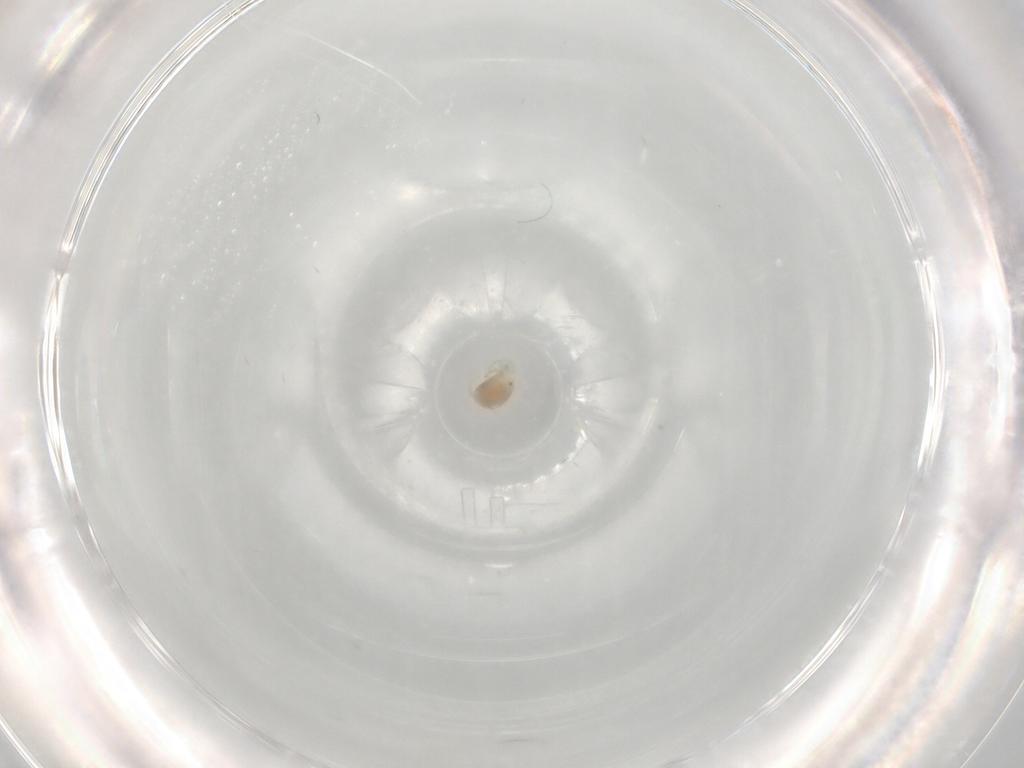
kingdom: Animalia
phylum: Arthropoda
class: Arachnida
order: Trombidiformes
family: Limnesiidae
